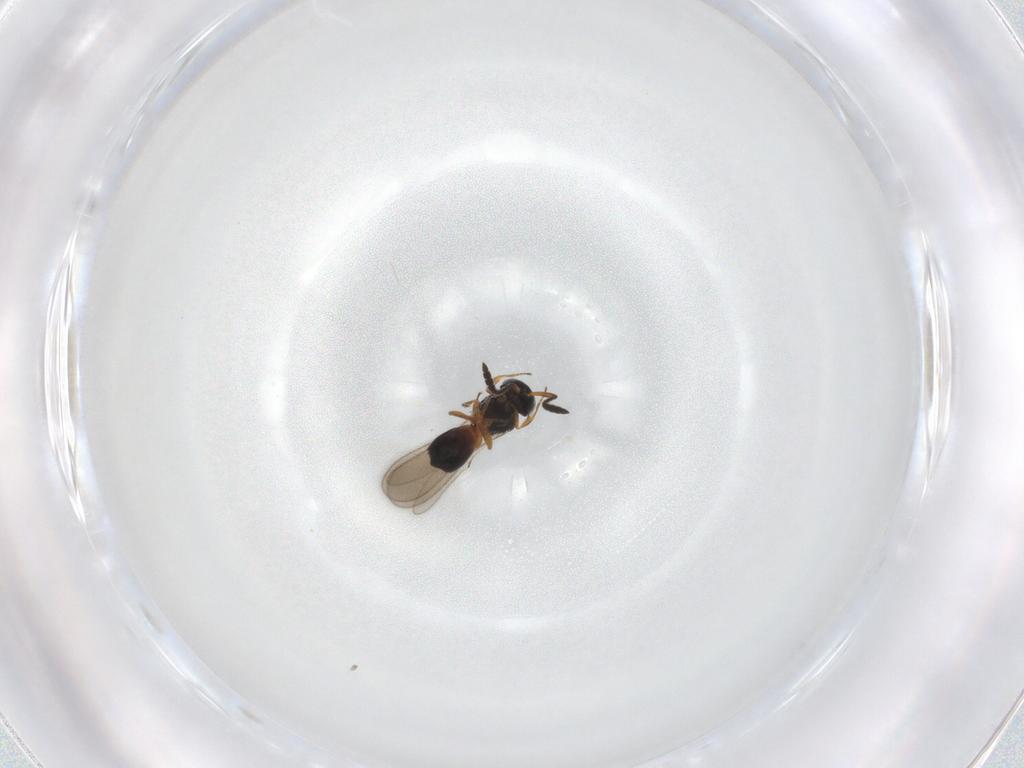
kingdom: Animalia
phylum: Arthropoda
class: Insecta
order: Hymenoptera
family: Scelionidae
